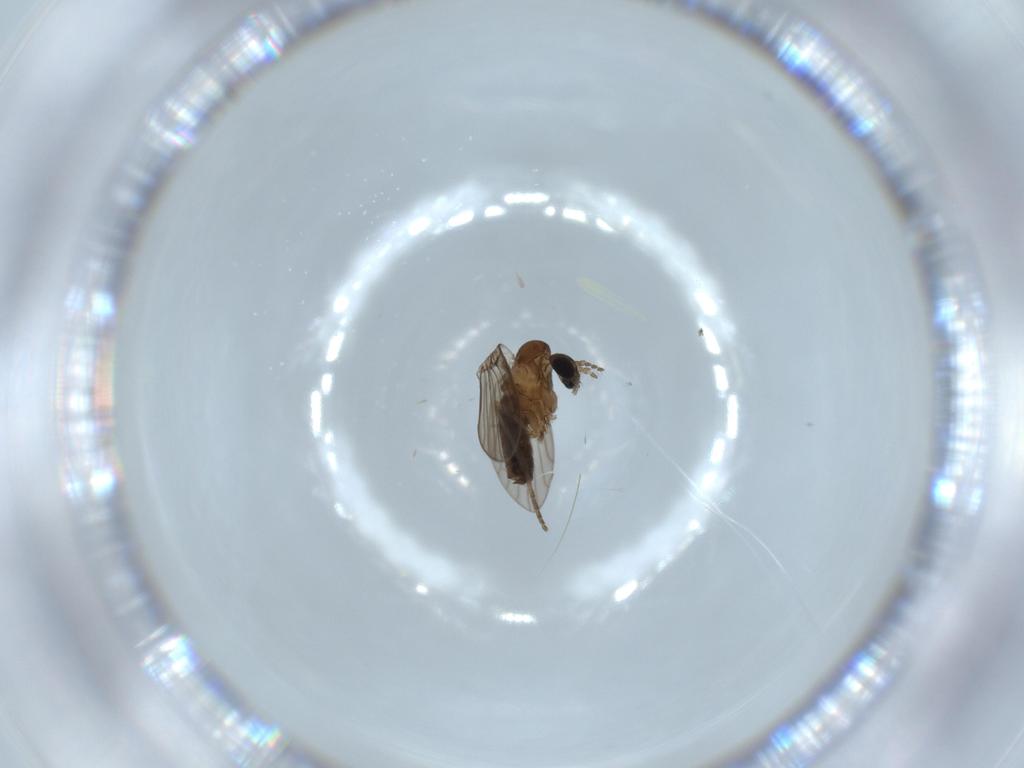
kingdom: Animalia
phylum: Arthropoda
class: Insecta
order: Diptera
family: Psychodidae
